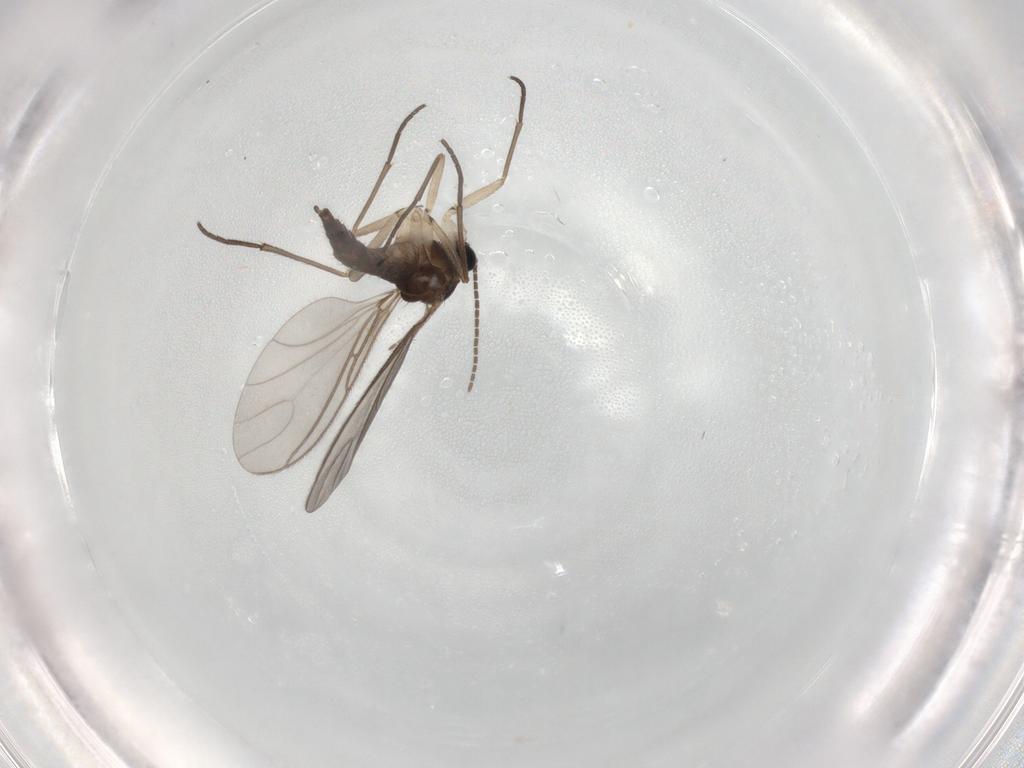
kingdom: Animalia
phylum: Arthropoda
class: Insecta
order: Diptera
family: Sciaridae
